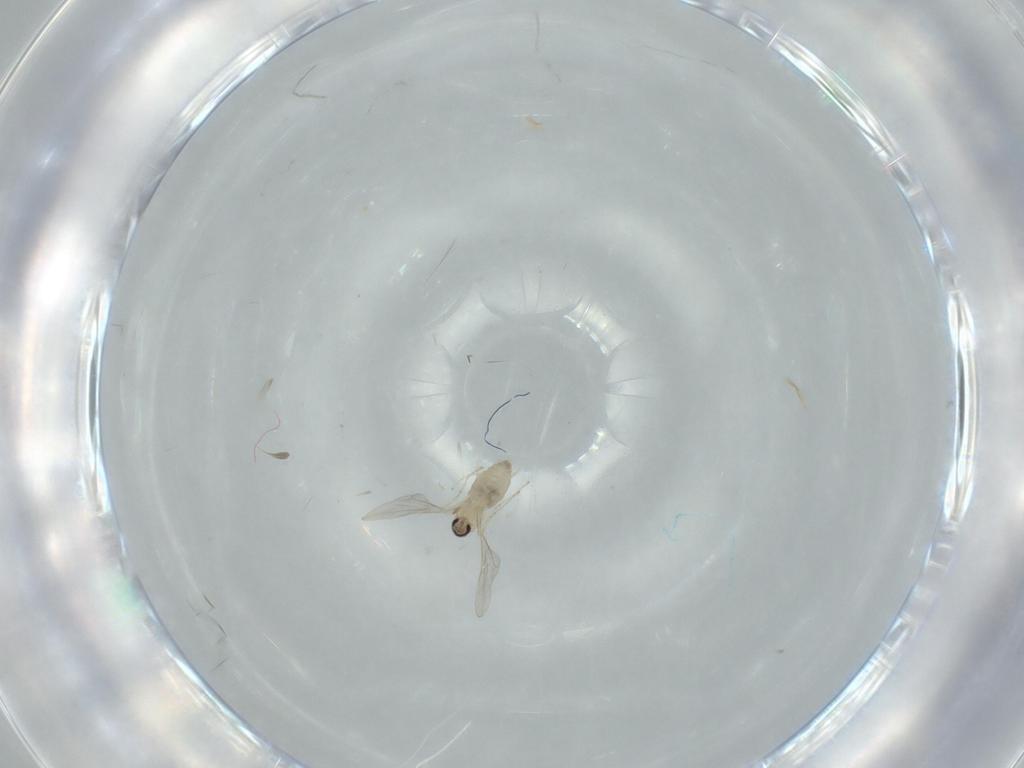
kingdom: Animalia
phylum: Arthropoda
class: Insecta
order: Diptera
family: Cecidomyiidae
